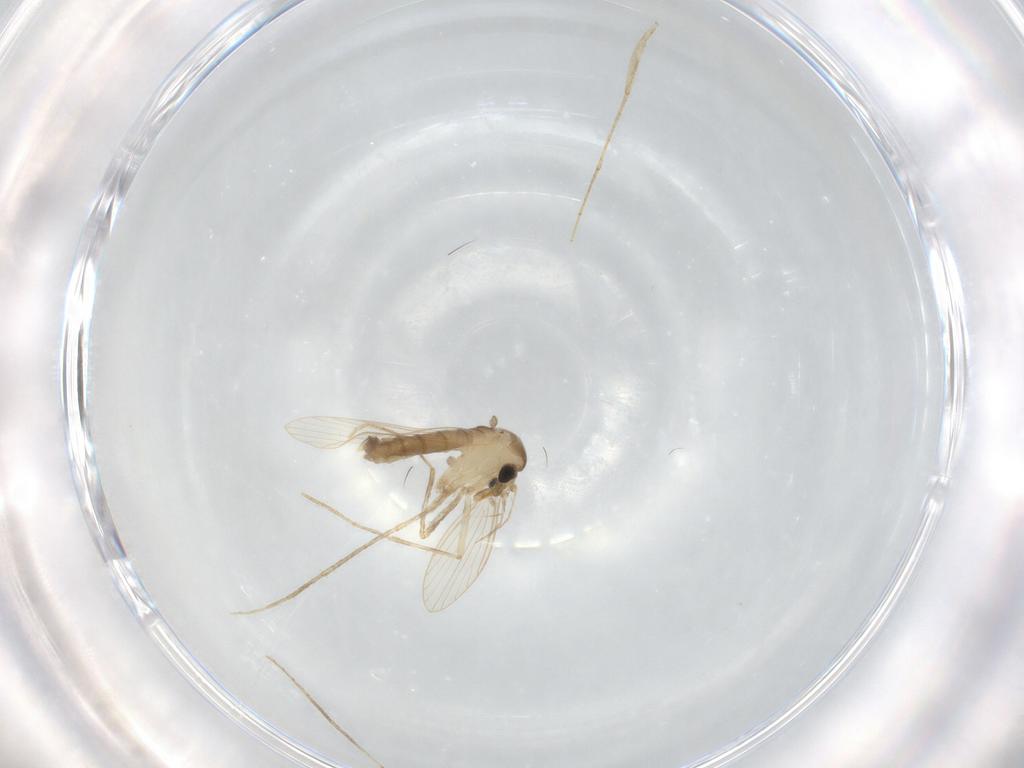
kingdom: Animalia
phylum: Arthropoda
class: Insecta
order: Diptera
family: Psychodidae
